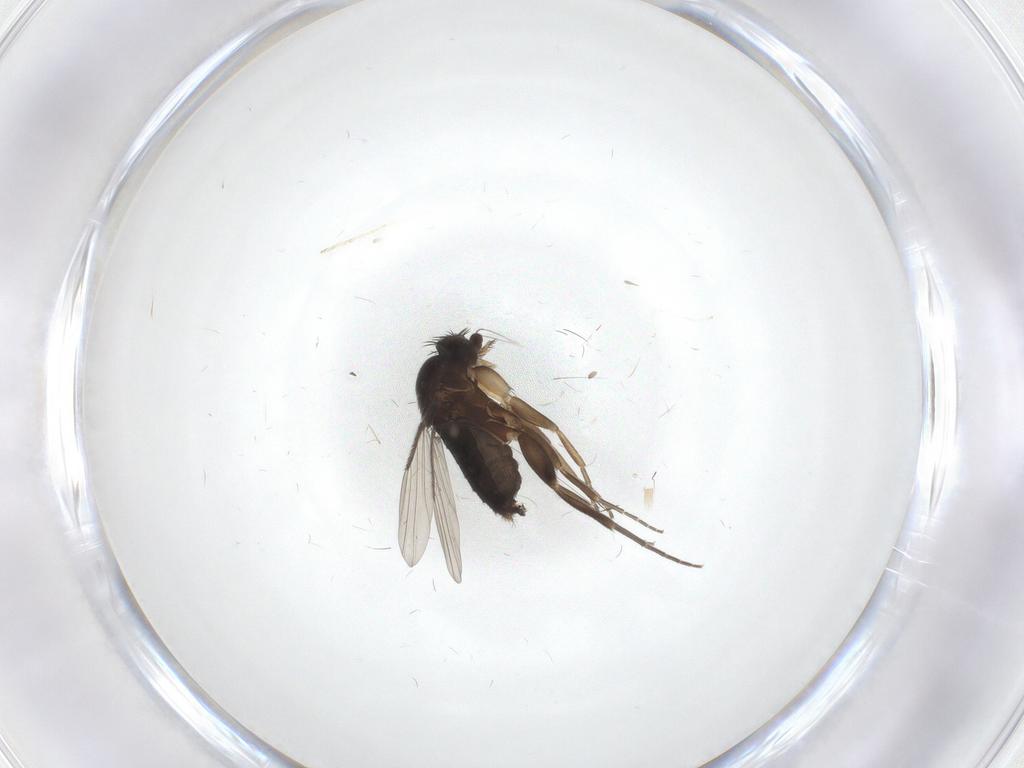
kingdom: Animalia
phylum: Arthropoda
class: Insecta
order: Diptera
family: Phoridae
